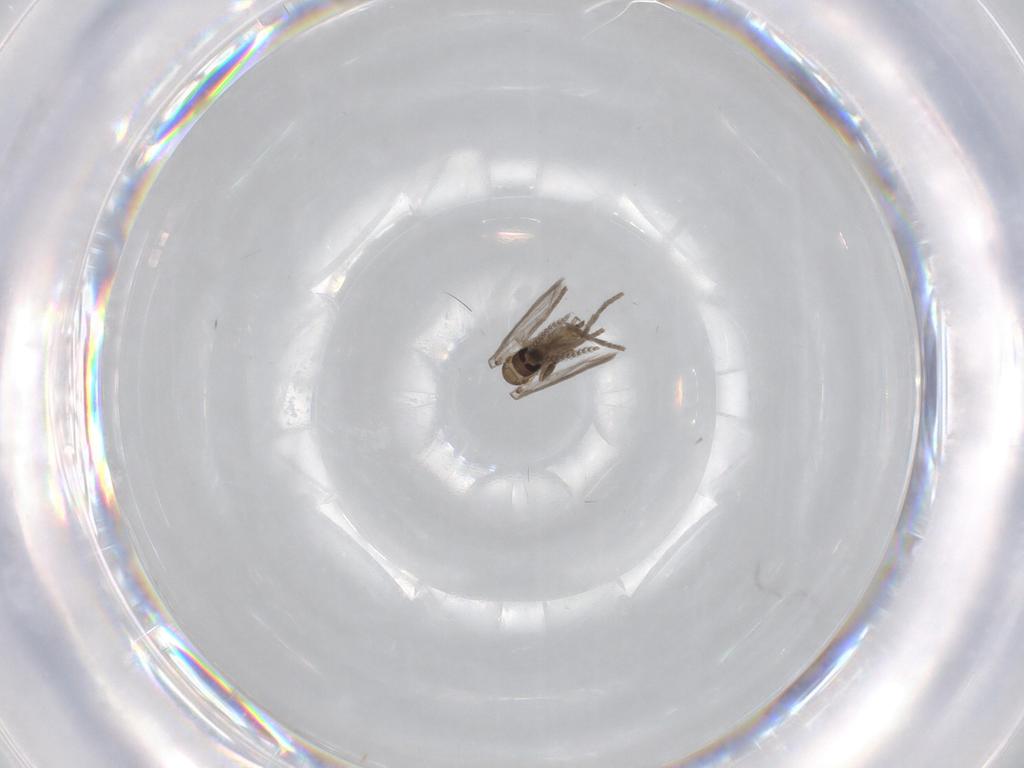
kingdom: Animalia
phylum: Arthropoda
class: Insecta
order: Diptera
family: Psychodidae
